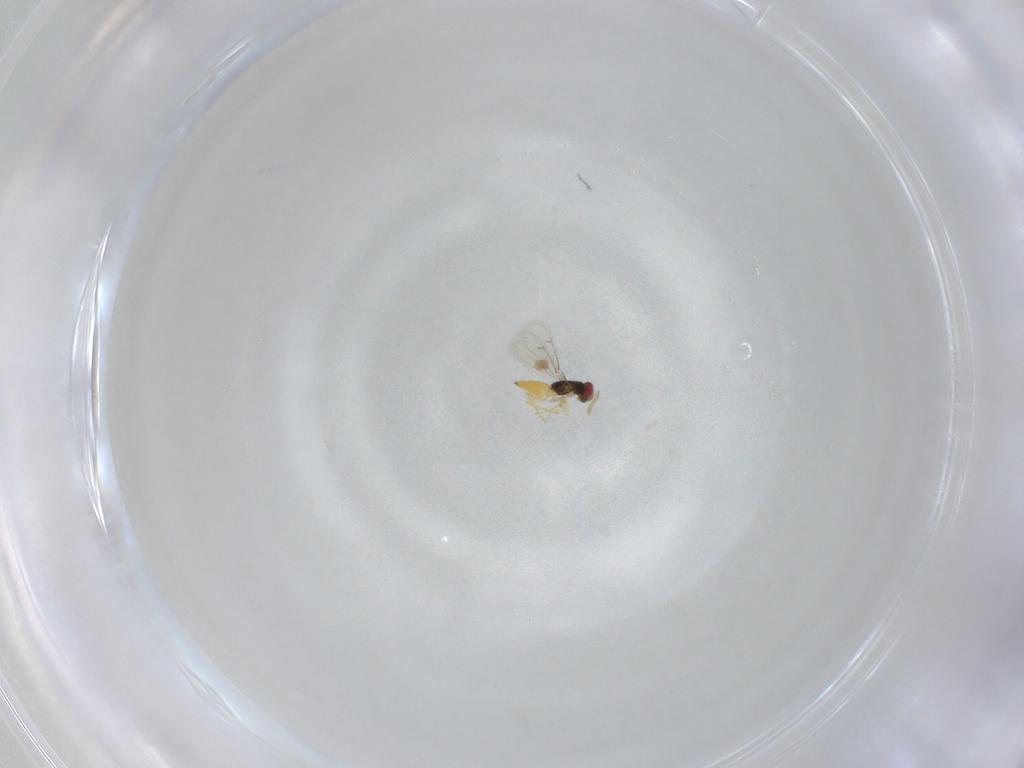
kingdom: Animalia
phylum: Arthropoda
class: Insecta
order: Hymenoptera
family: Eulophidae
